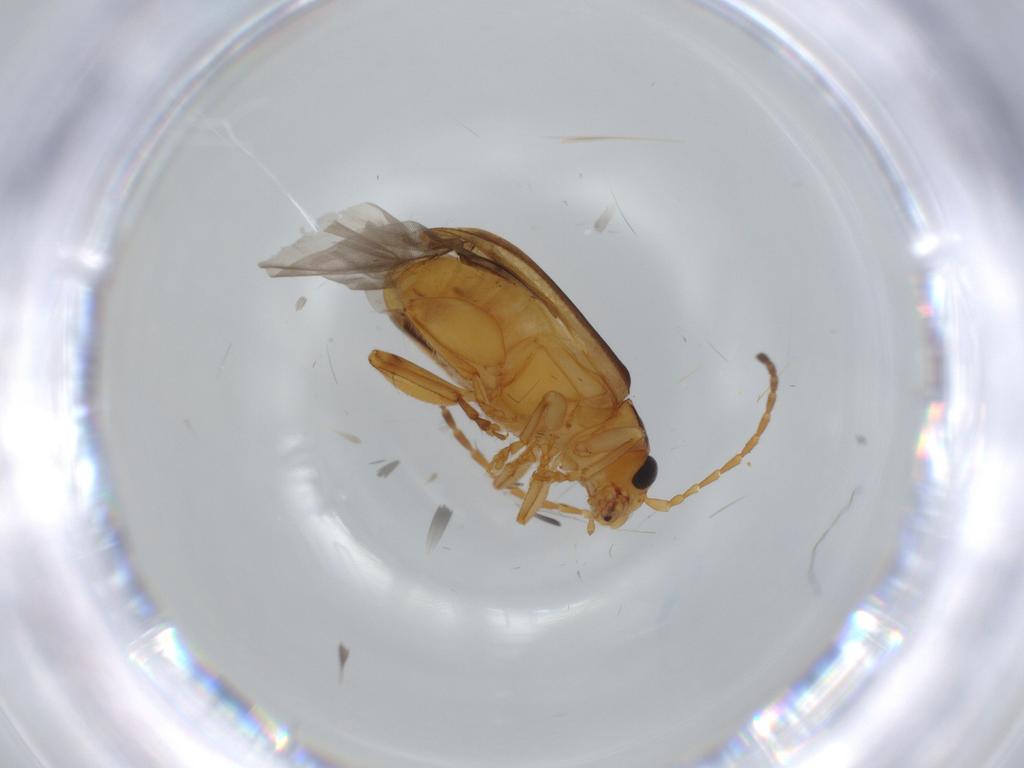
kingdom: Animalia
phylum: Arthropoda
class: Insecta
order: Coleoptera
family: Chrysomelidae
